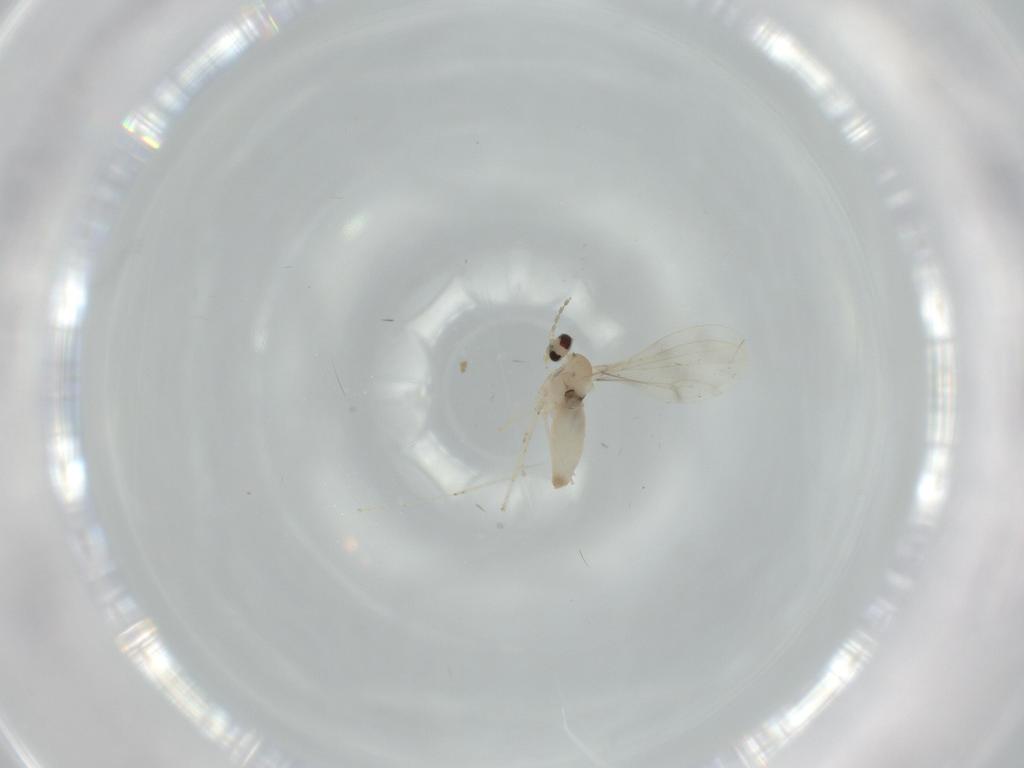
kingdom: Animalia
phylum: Arthropoda
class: Insecta
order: Diptera
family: Cecidomyiidae
